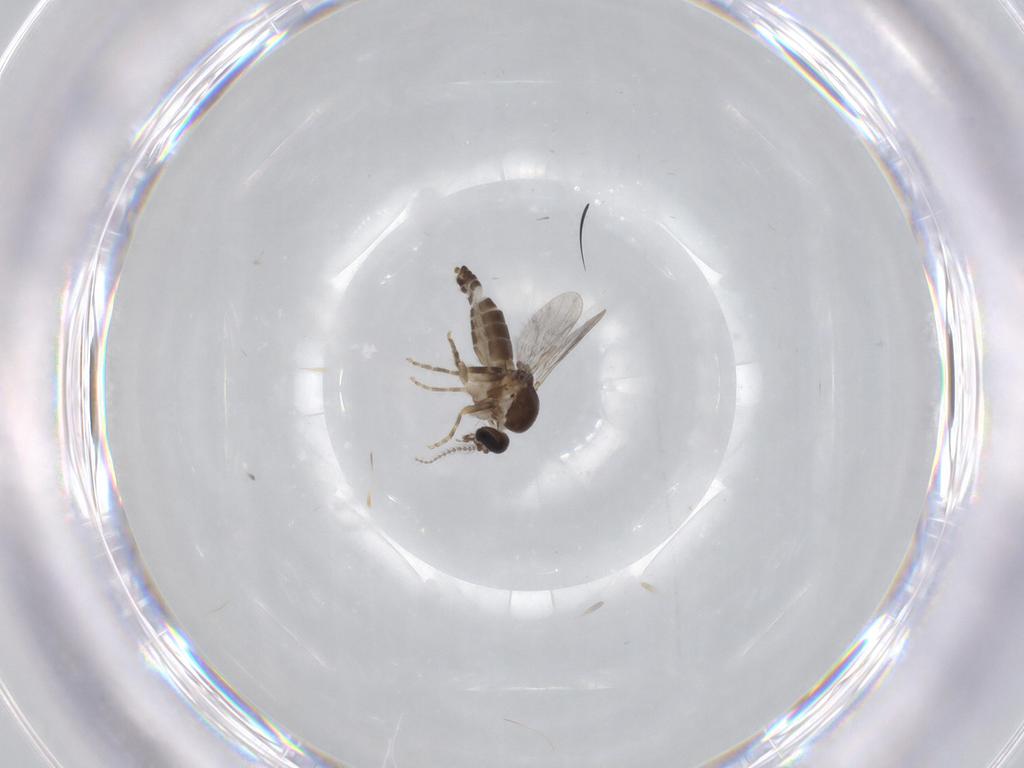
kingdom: Animalia
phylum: Arthropoda
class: Insecta
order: Diptera
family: Ceratopogonidae
